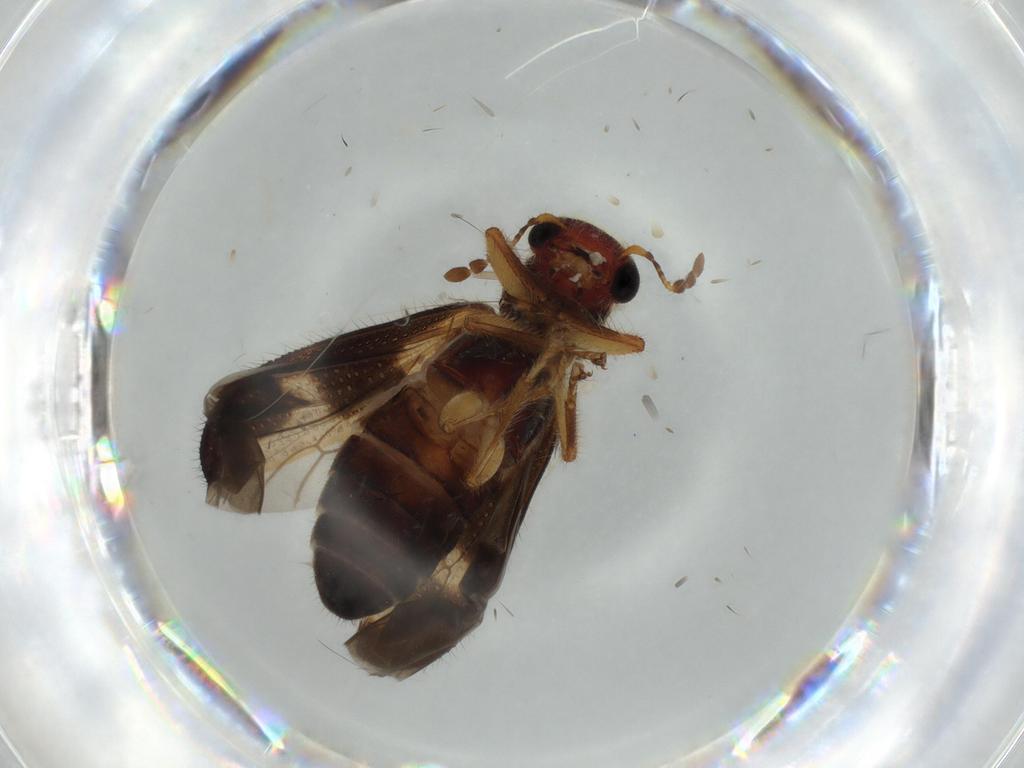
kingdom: Animalia
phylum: Arthropoda
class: Insecta
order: Coleoptera
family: Cleridae
